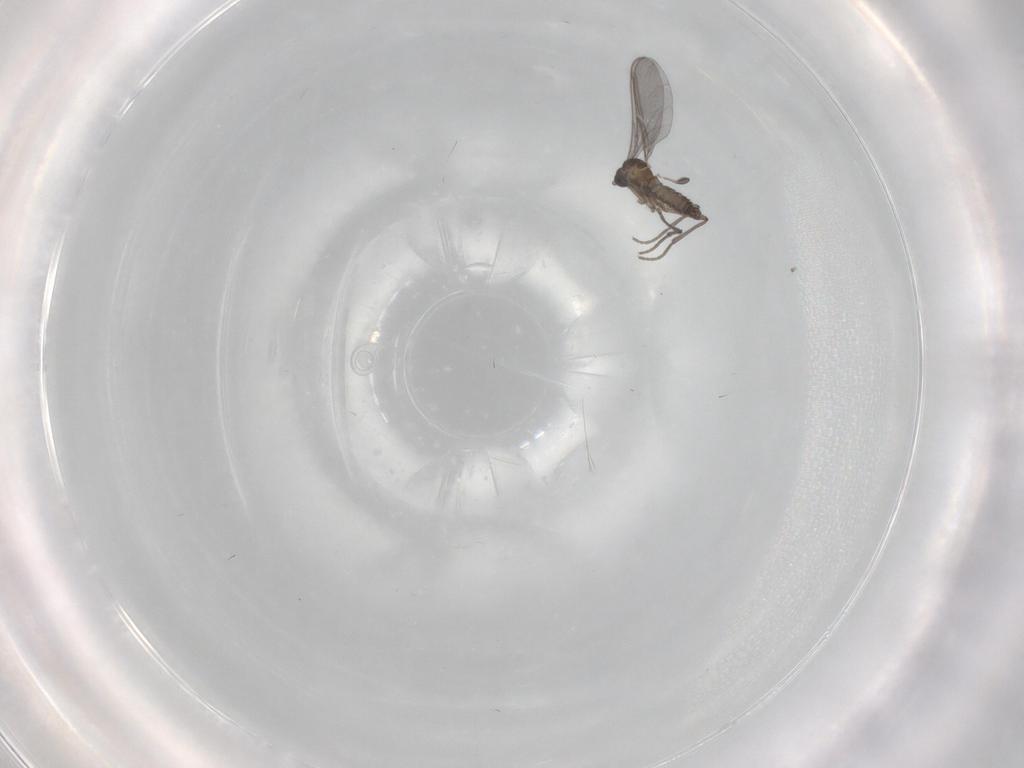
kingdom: Animalia
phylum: Arthropoda
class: Insecta
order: Diptera
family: Sciaridae
